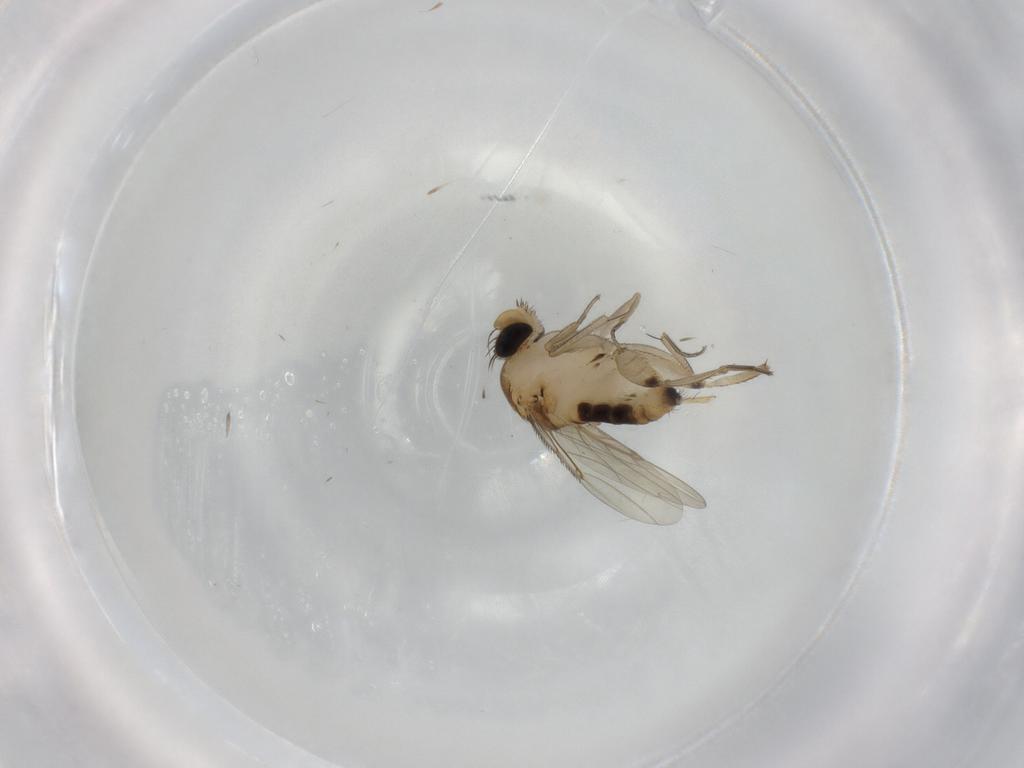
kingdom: Animalia
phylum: Arthropoda
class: Insecta
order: Diptera
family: Phoridae
